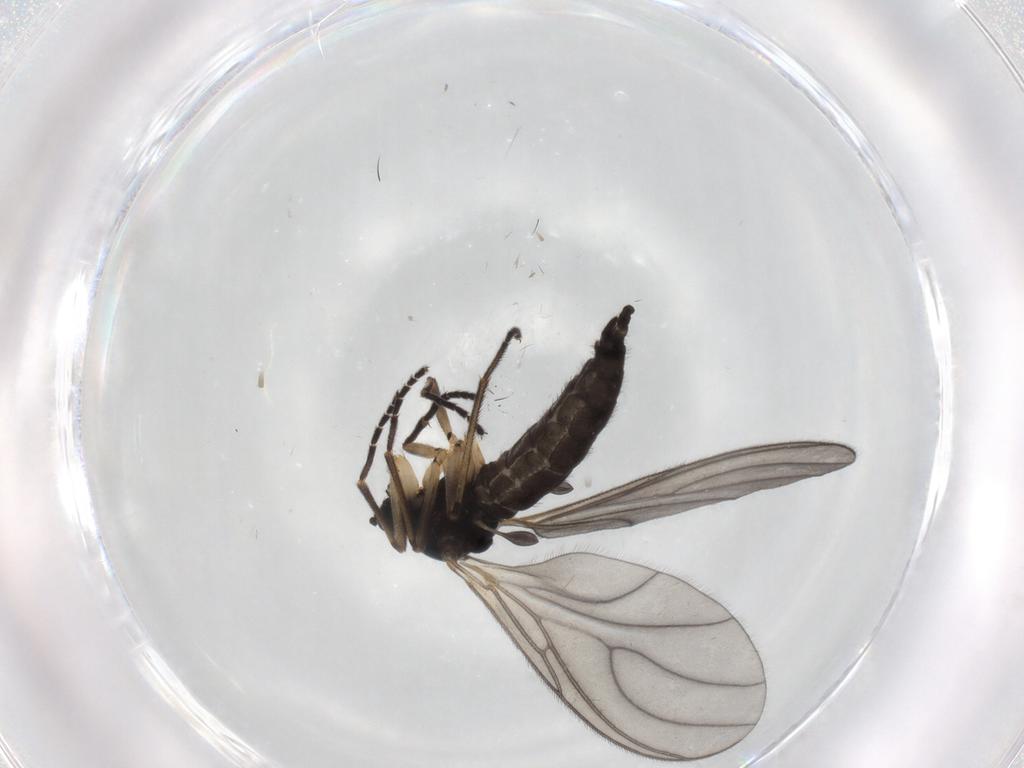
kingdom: Animalia
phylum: Arthropoda
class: Insecta
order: Diptera
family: Sciaridae
